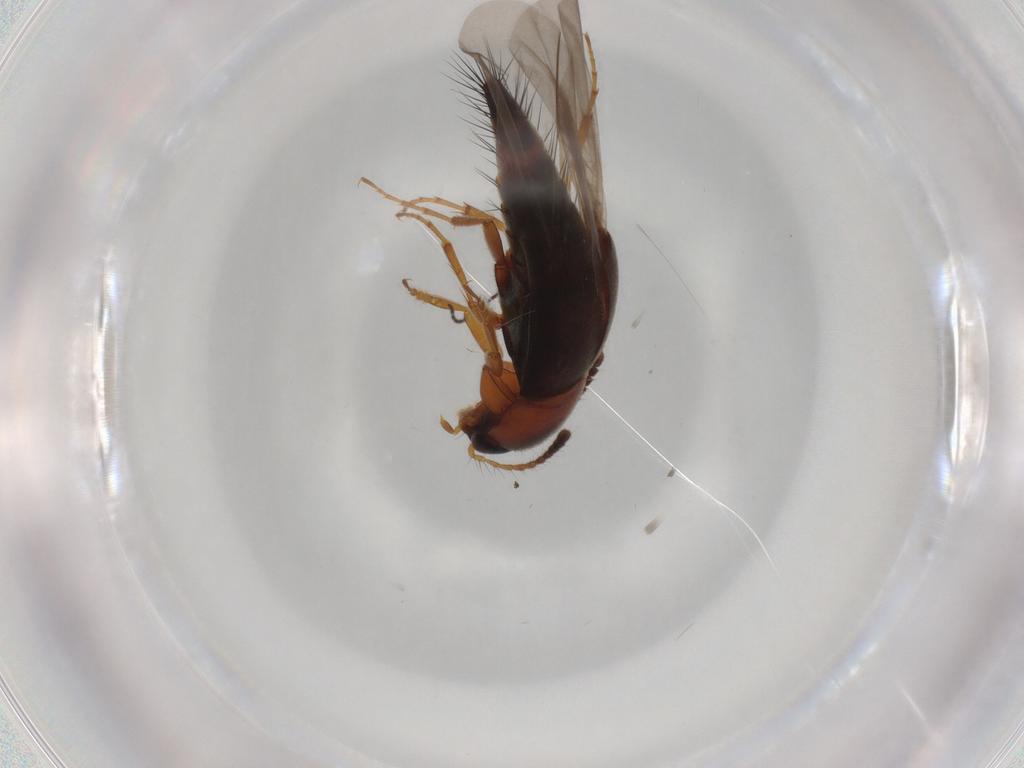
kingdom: Animalia
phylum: Arthropoda
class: Insecta
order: Coleoptera
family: Staphylinidae
